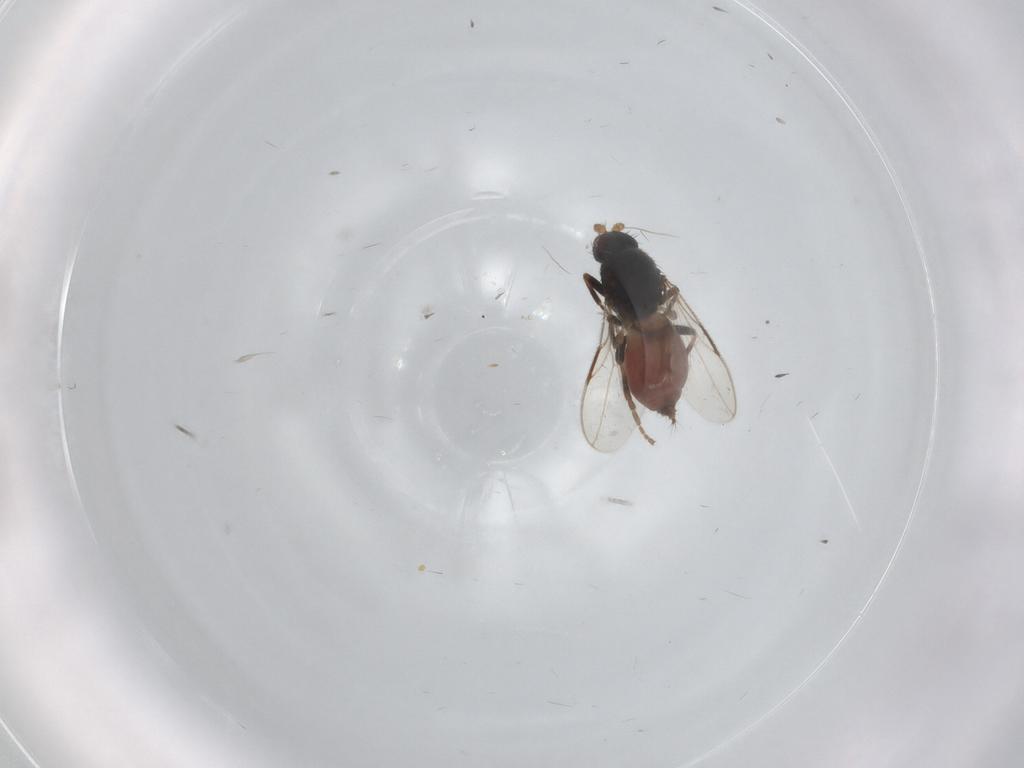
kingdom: Animalia
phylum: Arthropoda
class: Insecta
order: Diptera
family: Sphaeroceridae
